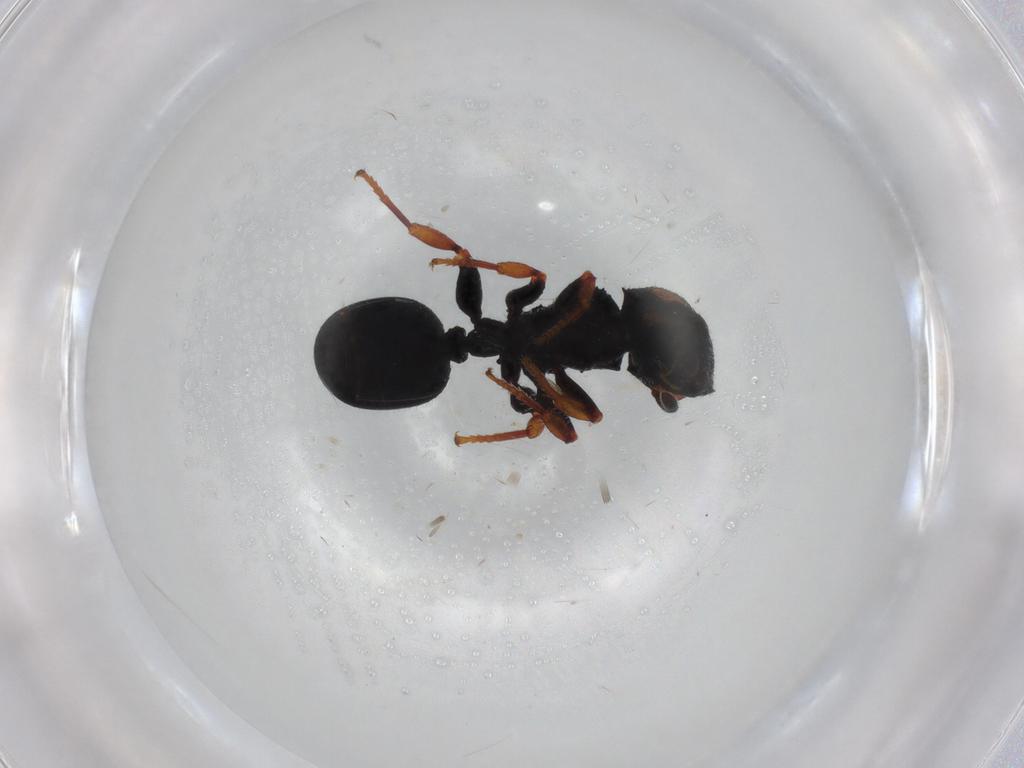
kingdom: Animalia
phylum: Arthropoda
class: Insecta
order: Hymenoptera
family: Formicidae
